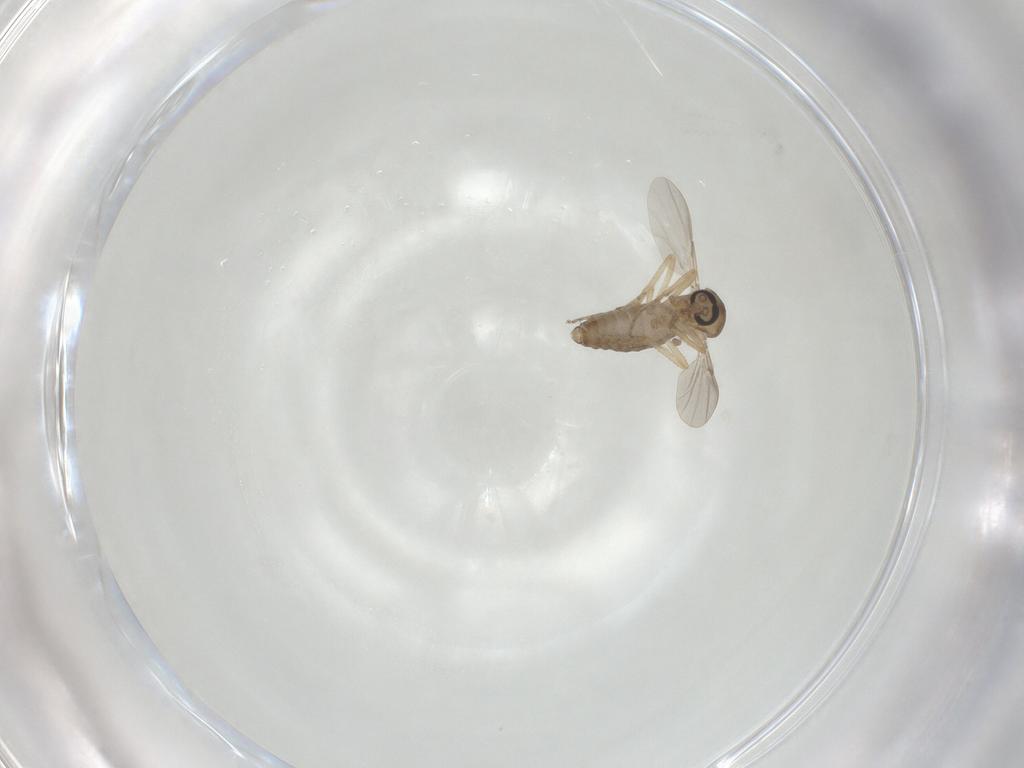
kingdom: Animalia
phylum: Arthropoda
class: Insecta
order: Diptera
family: Ceratopogonidae
